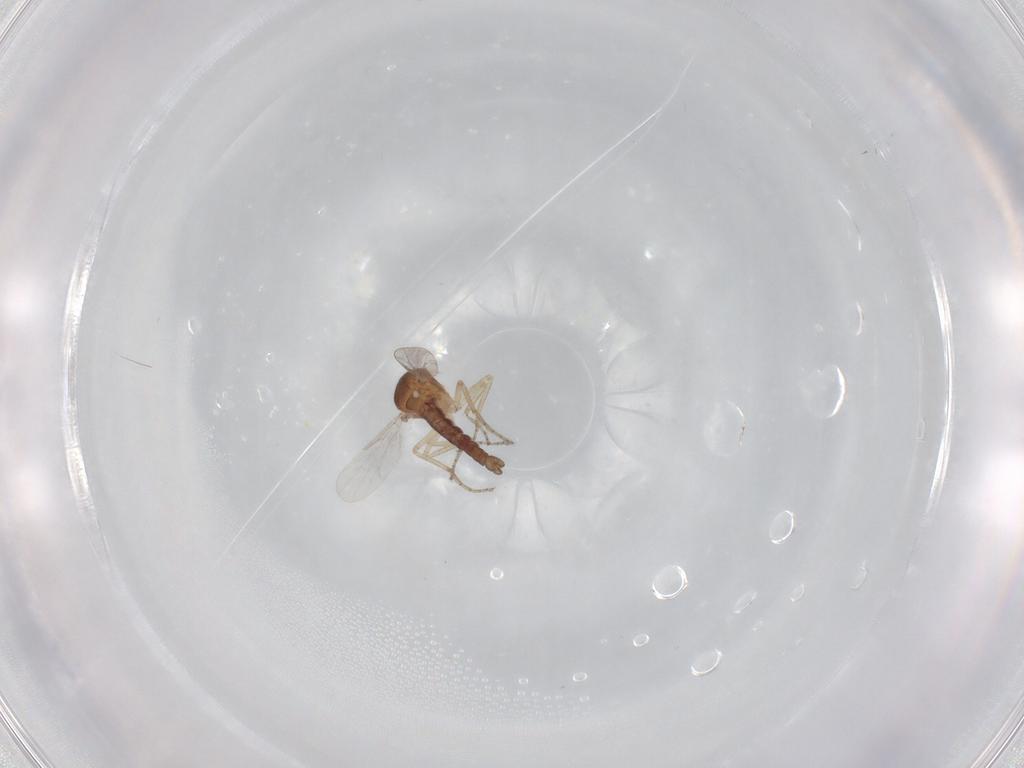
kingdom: Animalia
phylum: Arthropoda
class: Insecta
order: Diptera
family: Ceratopogonidae
